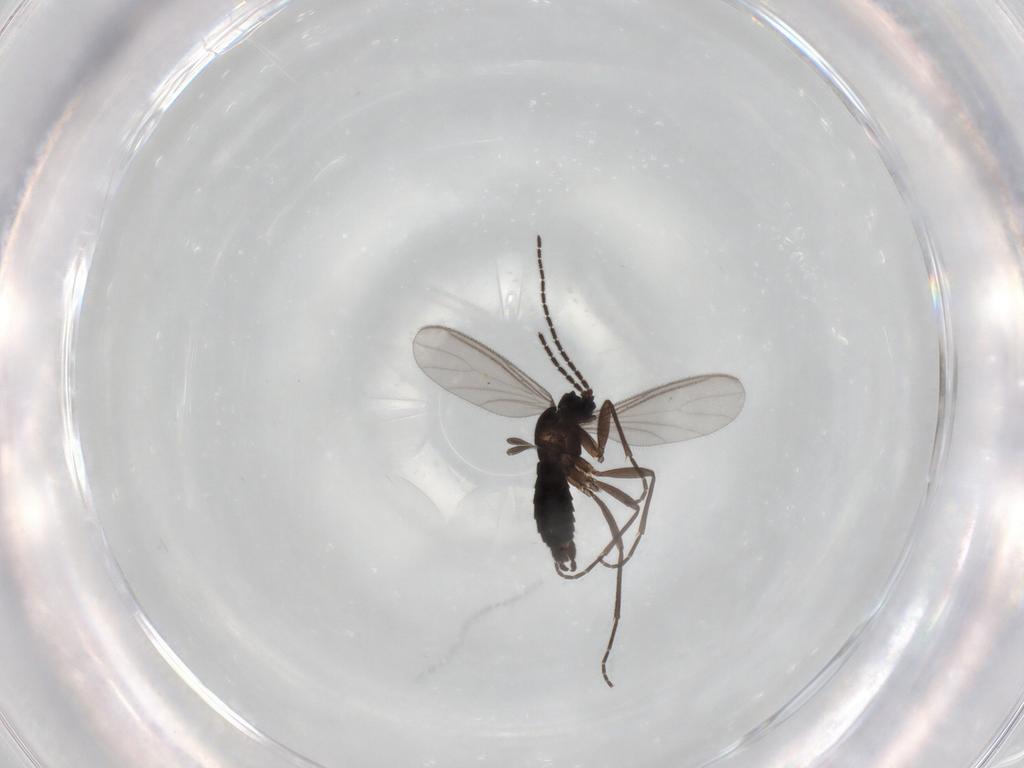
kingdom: Animalia
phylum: Arthropoda
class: Insecta
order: Diptera
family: Sciaridae
